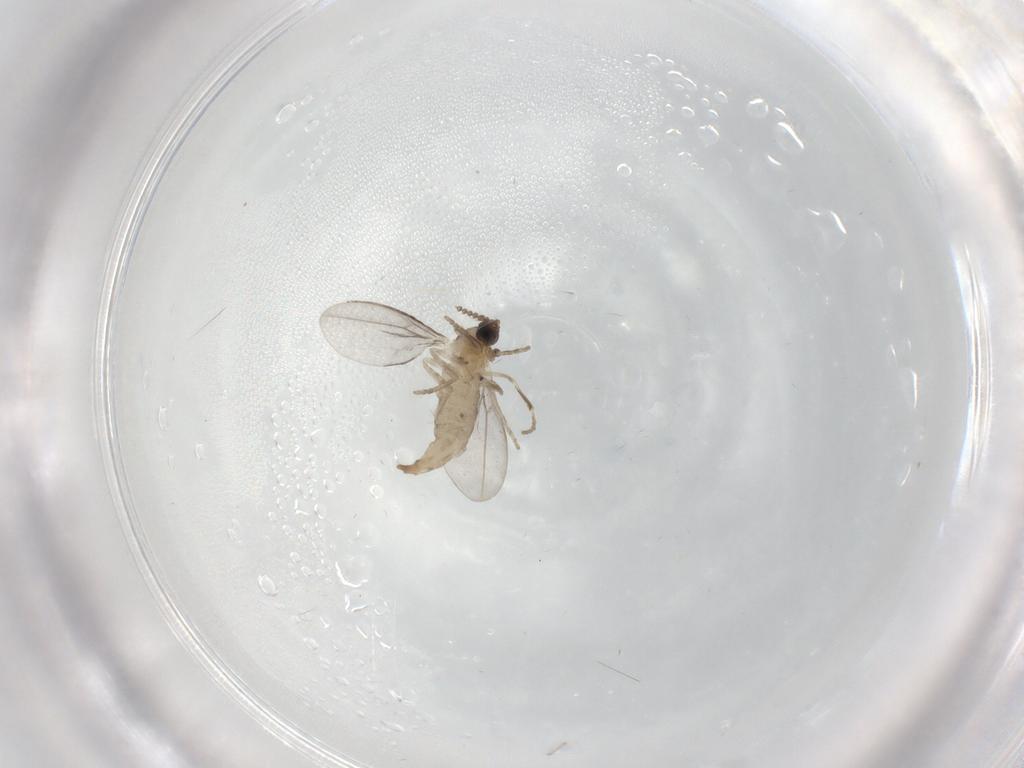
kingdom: Animalia
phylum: Arthropoda
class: Insecta
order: Diptera
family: Cecidomyiidae
